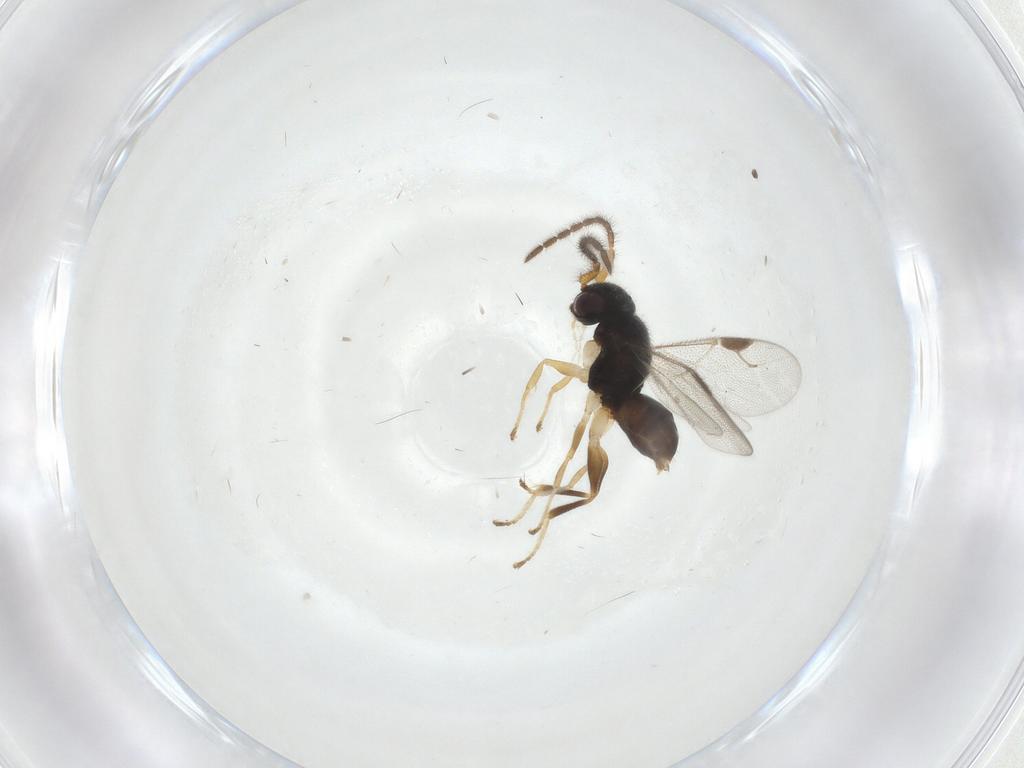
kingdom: Animalia
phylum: Arthropoda
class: Insecta
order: Hymenoptera
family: Dryinidae
